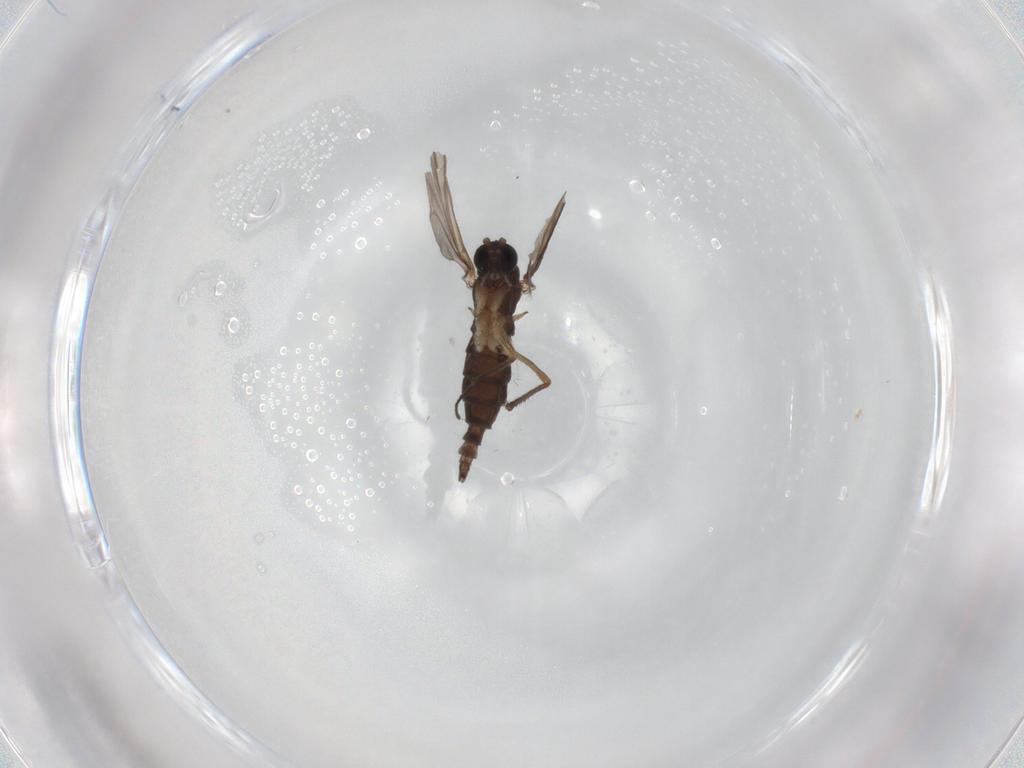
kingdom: Animalia
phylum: Arthropoda
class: Insecta
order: Diptera
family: Sciaridae
